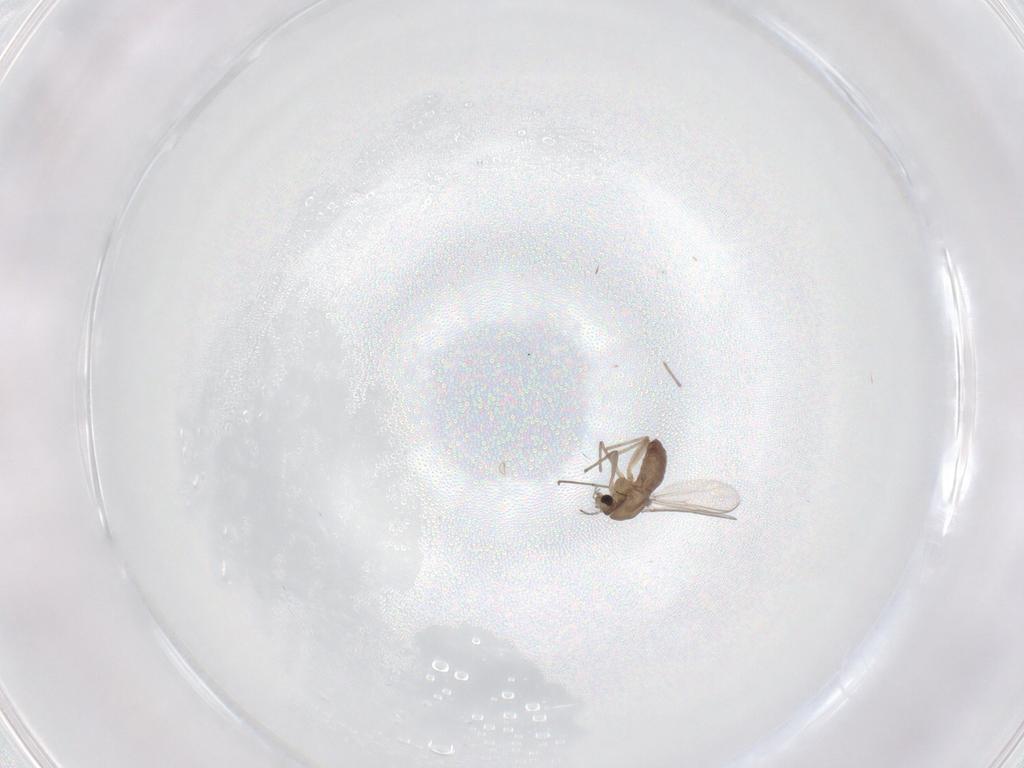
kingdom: Animalia
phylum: Arthropoda
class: Insecta
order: Diptera
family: Chironomidae
